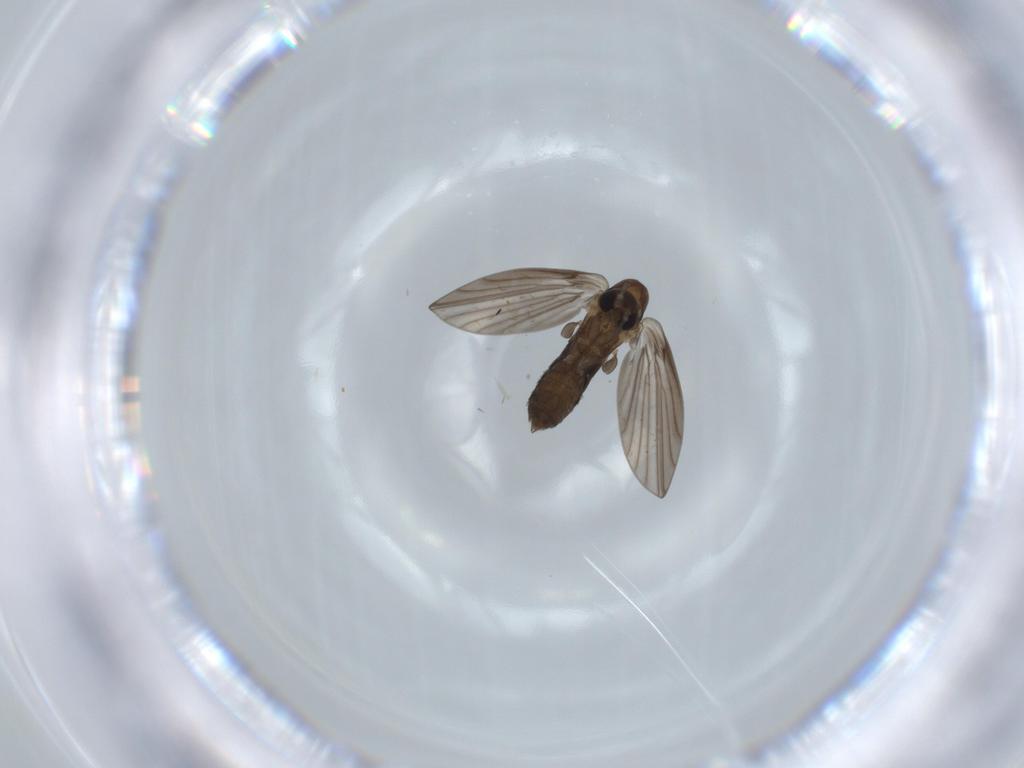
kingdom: Animalia
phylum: Arthropoda
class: Insecta
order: Diptera
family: Psychodidae
